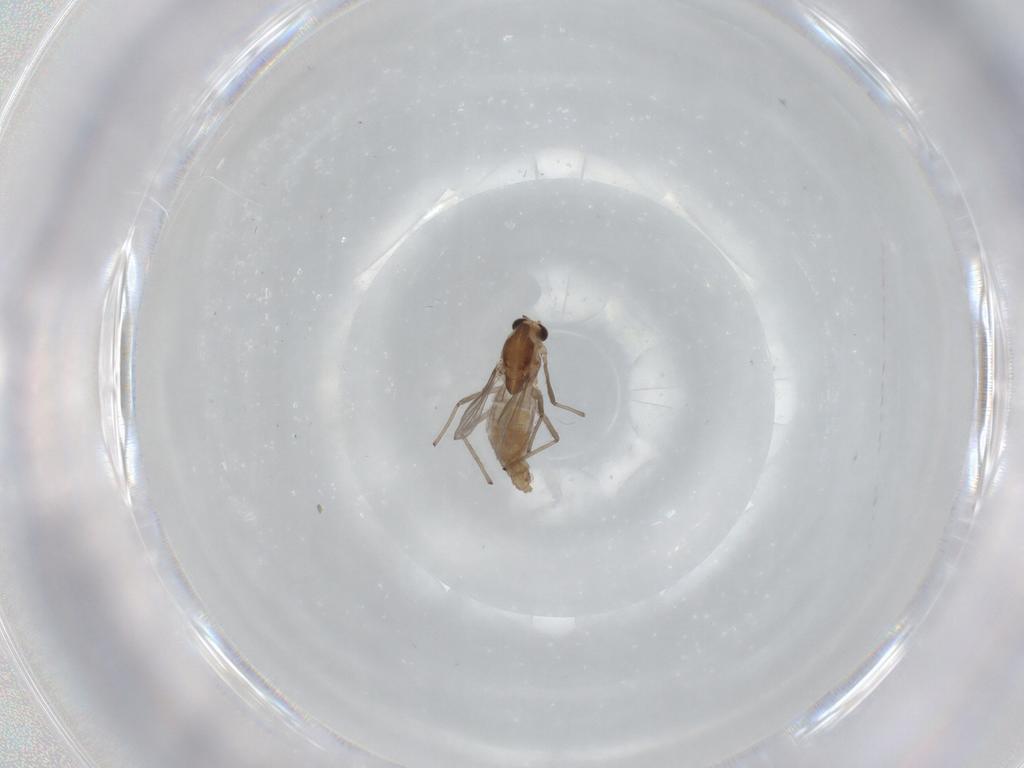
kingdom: Animalia
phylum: Arthropoda
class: Insecta
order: Diptera
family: Chironomidae
